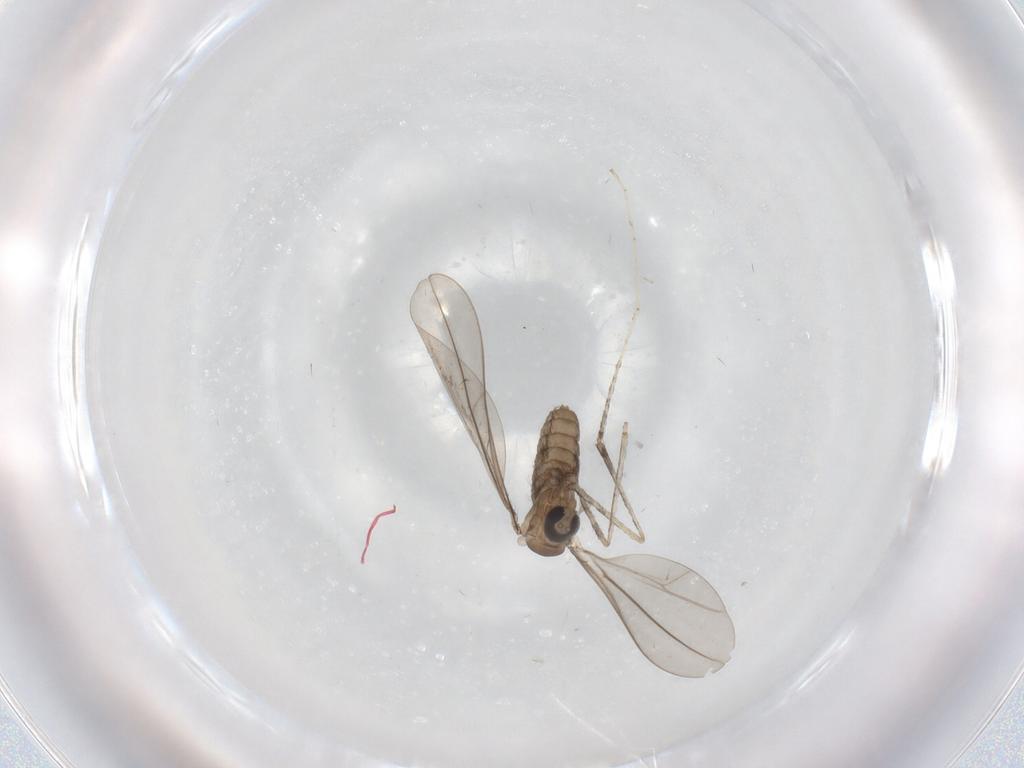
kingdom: Animalia
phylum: Arthropoda
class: Insecta
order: Diptera
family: Cecidomyiidae
